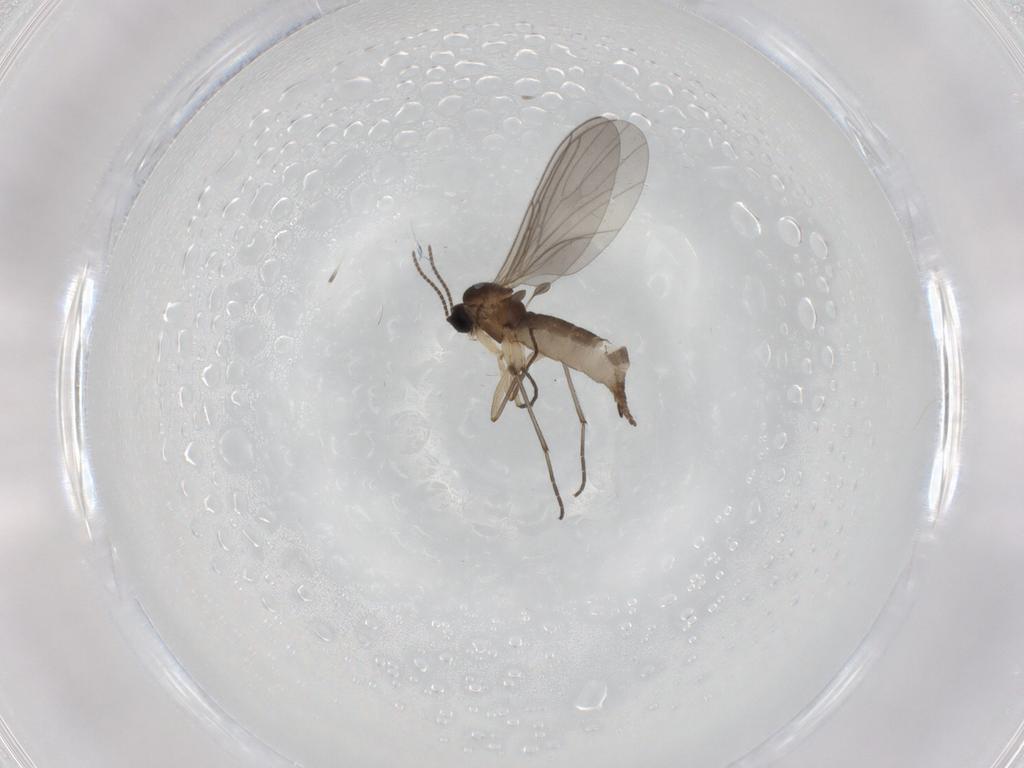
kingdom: Animalia
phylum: Arthropoda
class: Insecta
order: Diptera
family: Sciaridae
